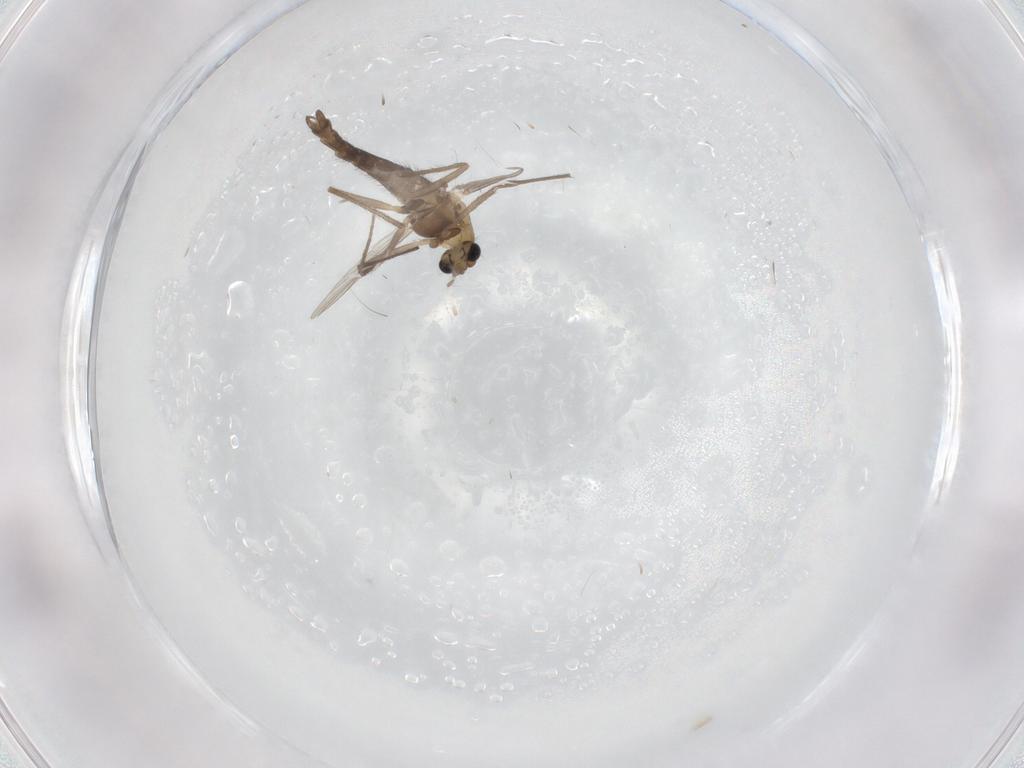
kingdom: Animalia
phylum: Arthropoda
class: Insecta
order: Diptera
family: Chironomidae
